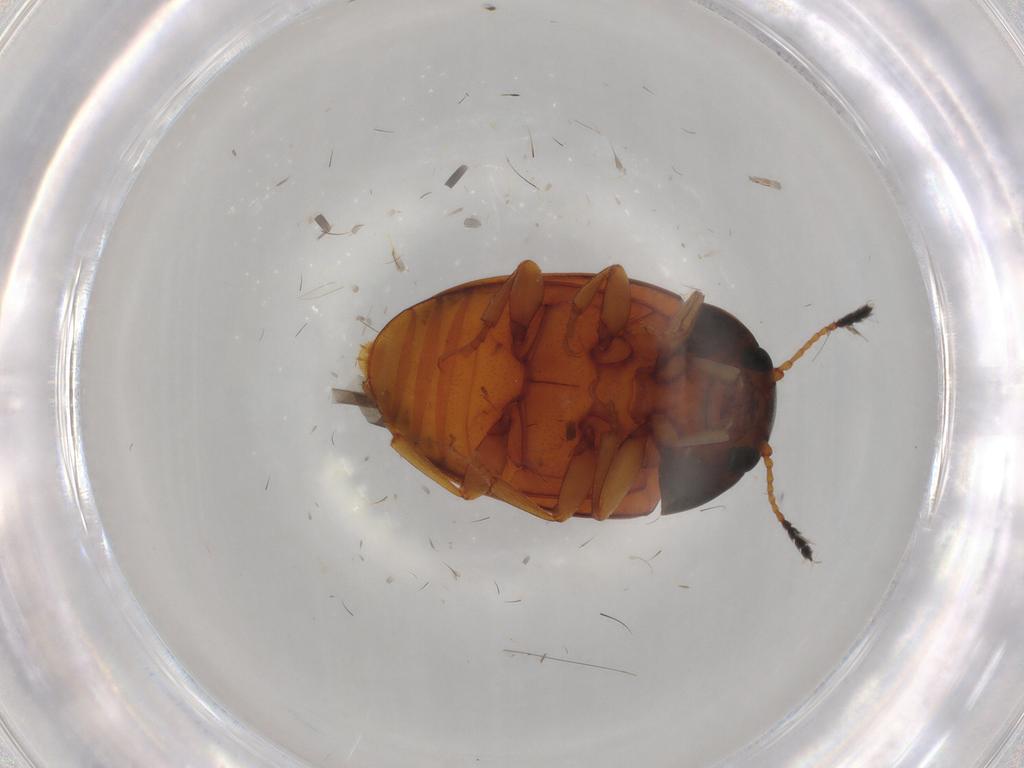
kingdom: Animalia
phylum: Arthropoda
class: Insecta
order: Coleoptera
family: Erotylidae
